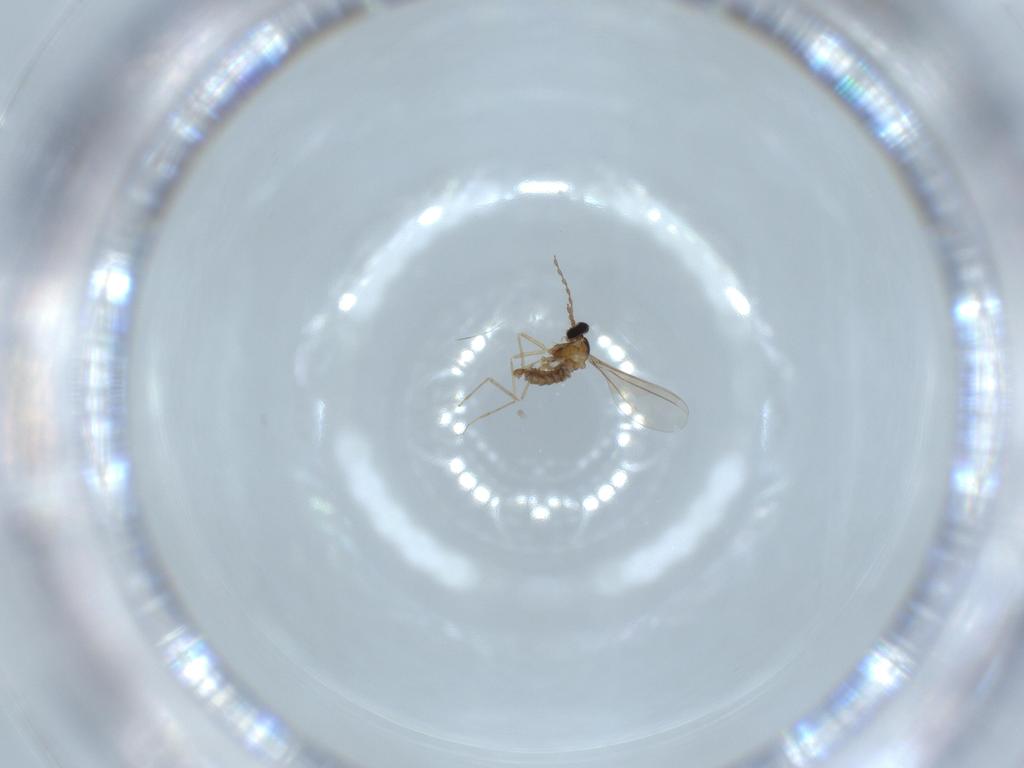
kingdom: Animalia
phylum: Arthropoda
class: Insecta
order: Diptera
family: Cecidomyiidae
